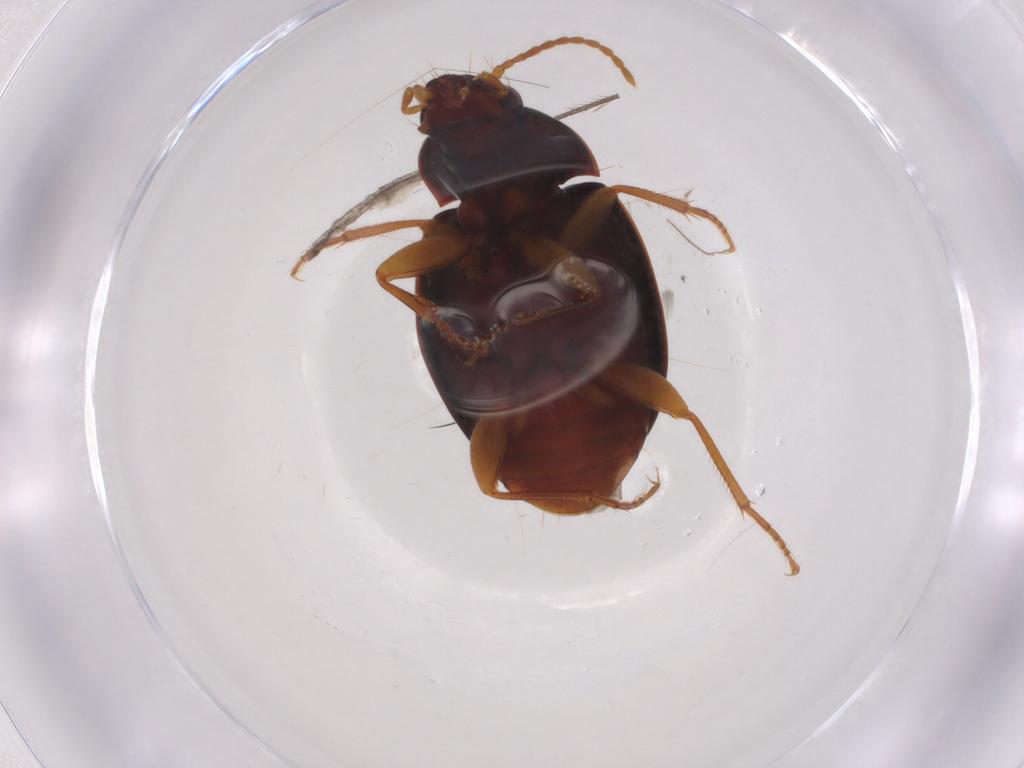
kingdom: Animalia
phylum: Arthropoda
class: Insecta
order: Coleoptera
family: Carabidae
